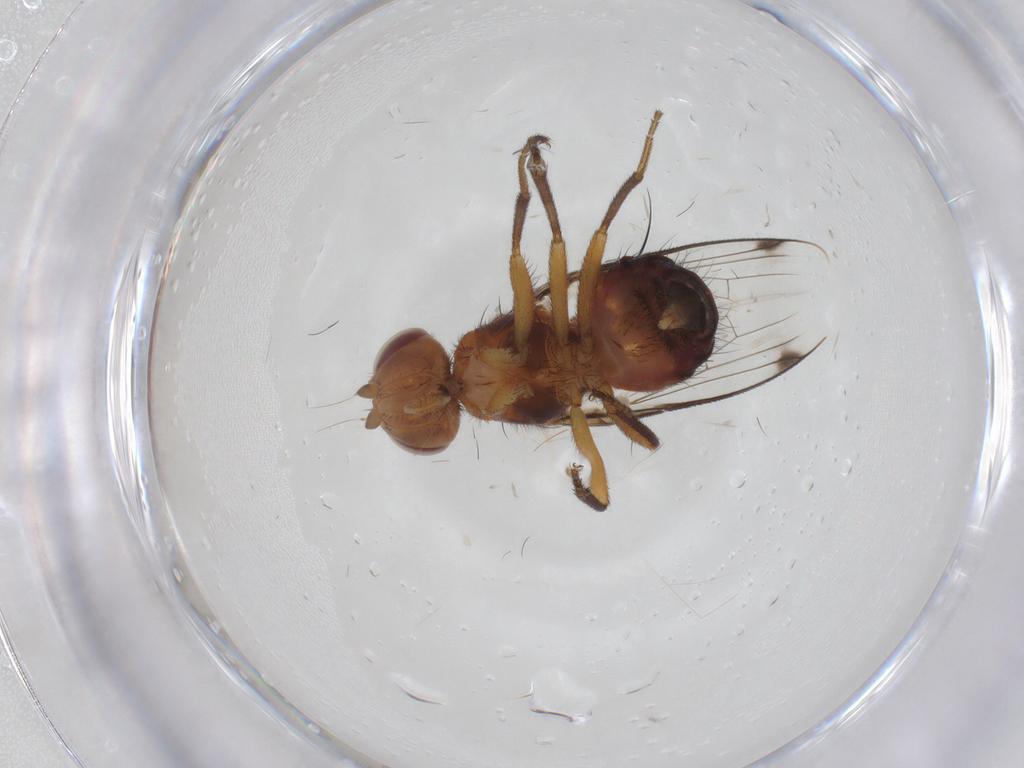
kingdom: Animalia
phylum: Arthropoda
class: Insecta
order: Diptera
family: Richardiidae
